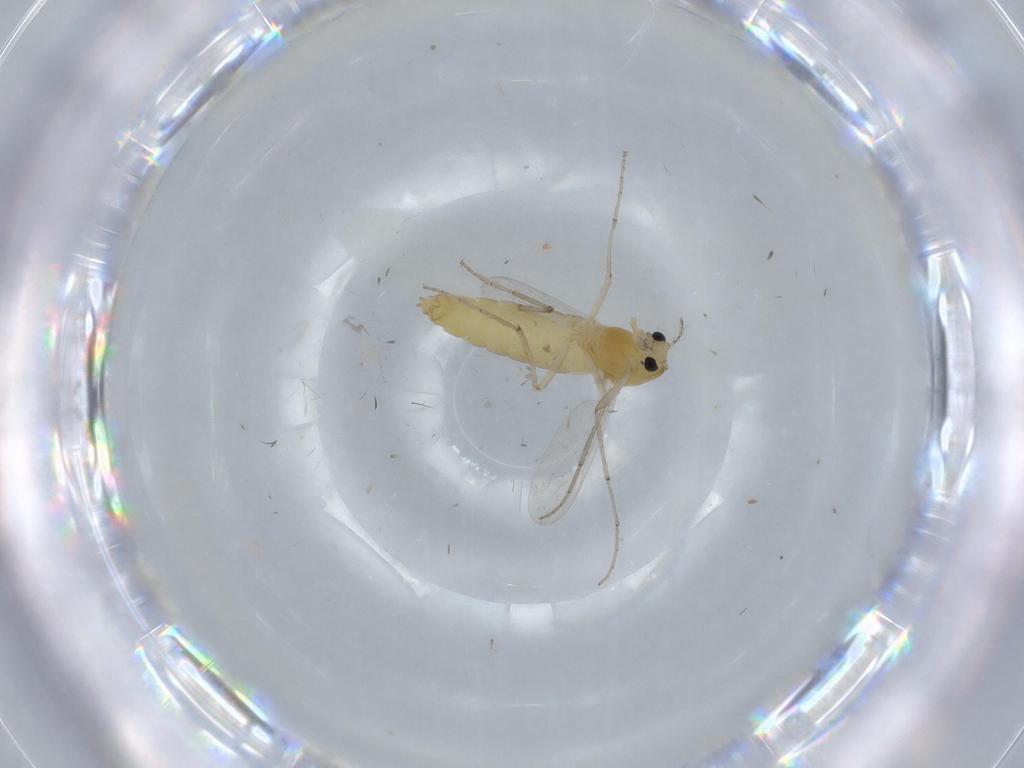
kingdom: Animalia
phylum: Arthropoda
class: Insecta
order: Diptera
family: Chironomidae
